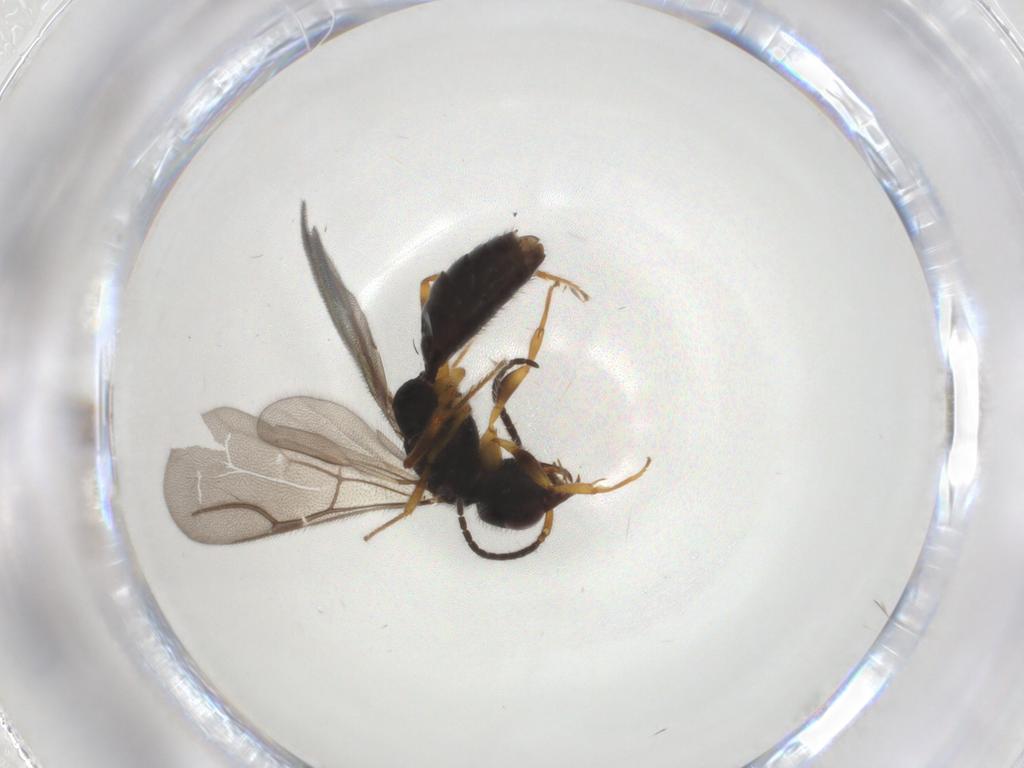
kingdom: Animalia
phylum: Arthropoda
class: Insecta
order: Hymenoptera
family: Bethylidae
